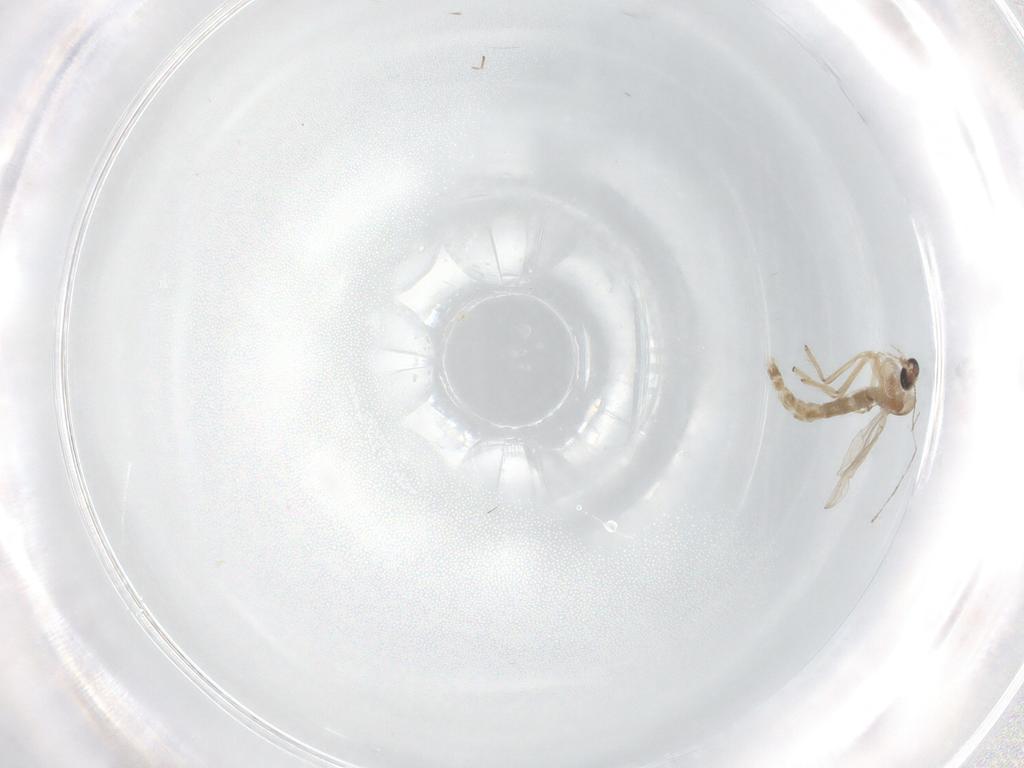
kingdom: Animalia
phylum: Arthropoda
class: Insecta
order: Diptera
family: Chironomidae
